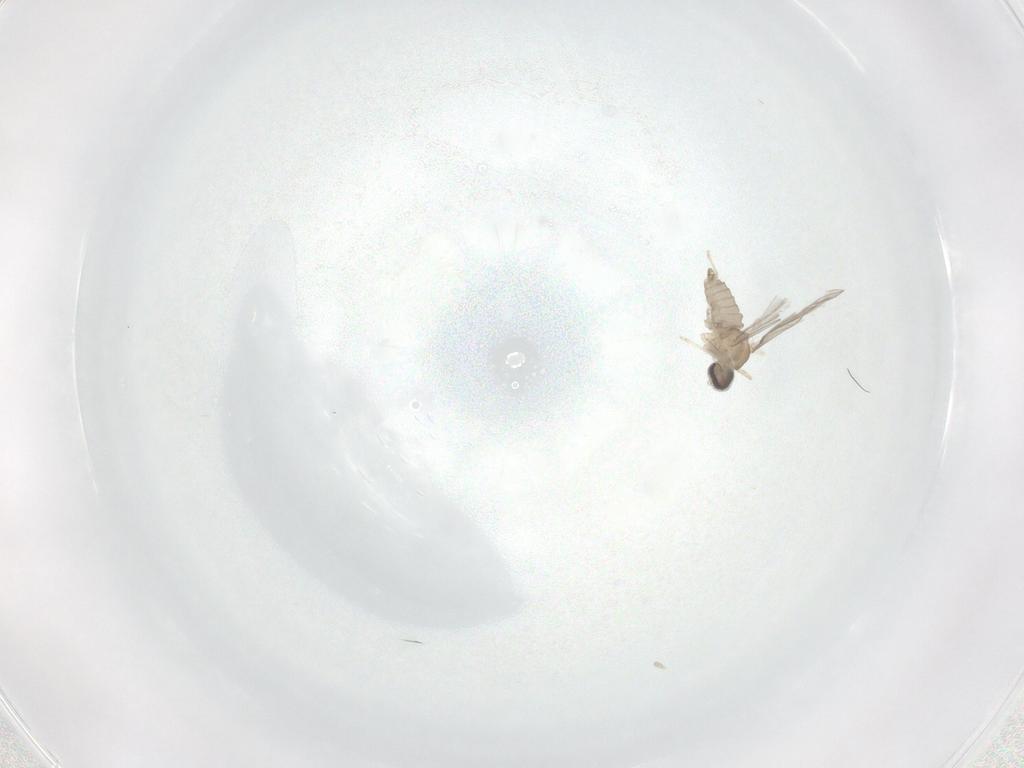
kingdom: Animalia
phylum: Arthropoda
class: Insecta
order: Diptera
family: Cecidomyiidae
